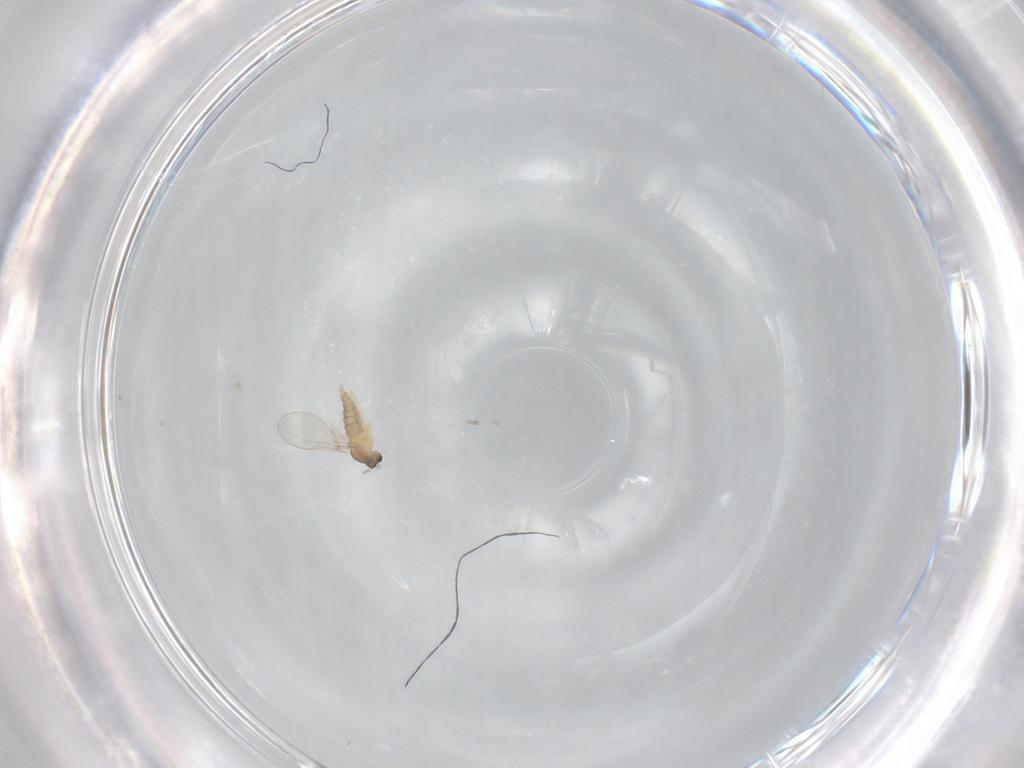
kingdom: Animalia
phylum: Arthropoda
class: Insecta
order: Diptera
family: Cecidomyiidae
